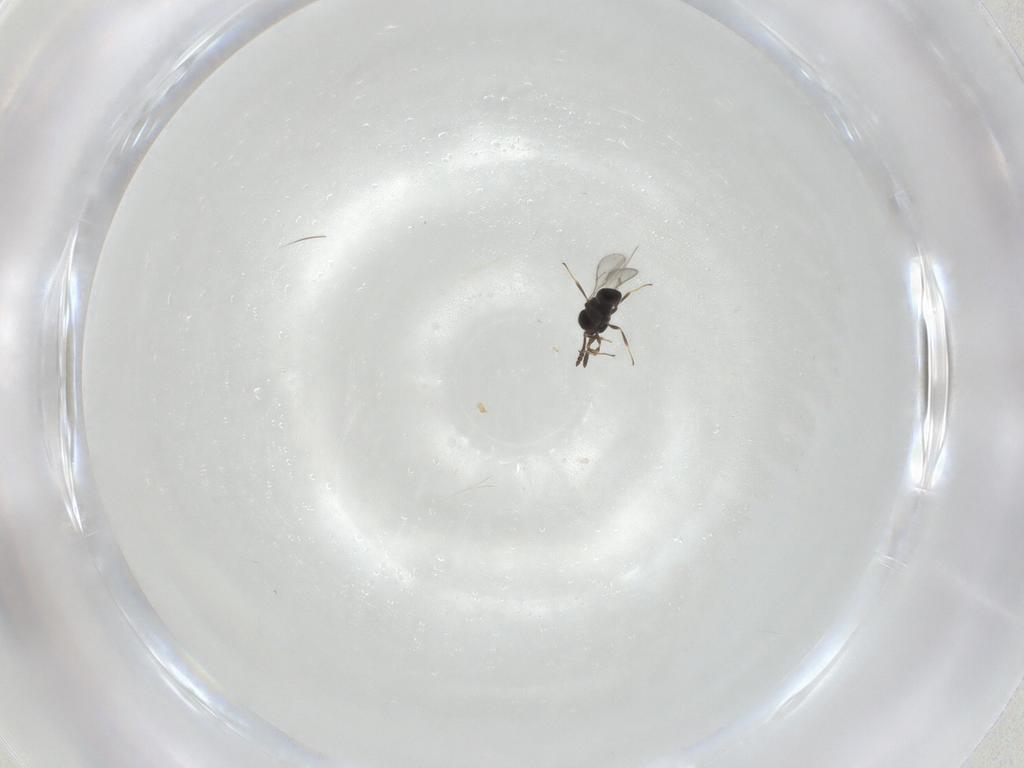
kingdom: Animalia
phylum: Arthropoda
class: Insecta
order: Hymenoptera
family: Scelionidae
